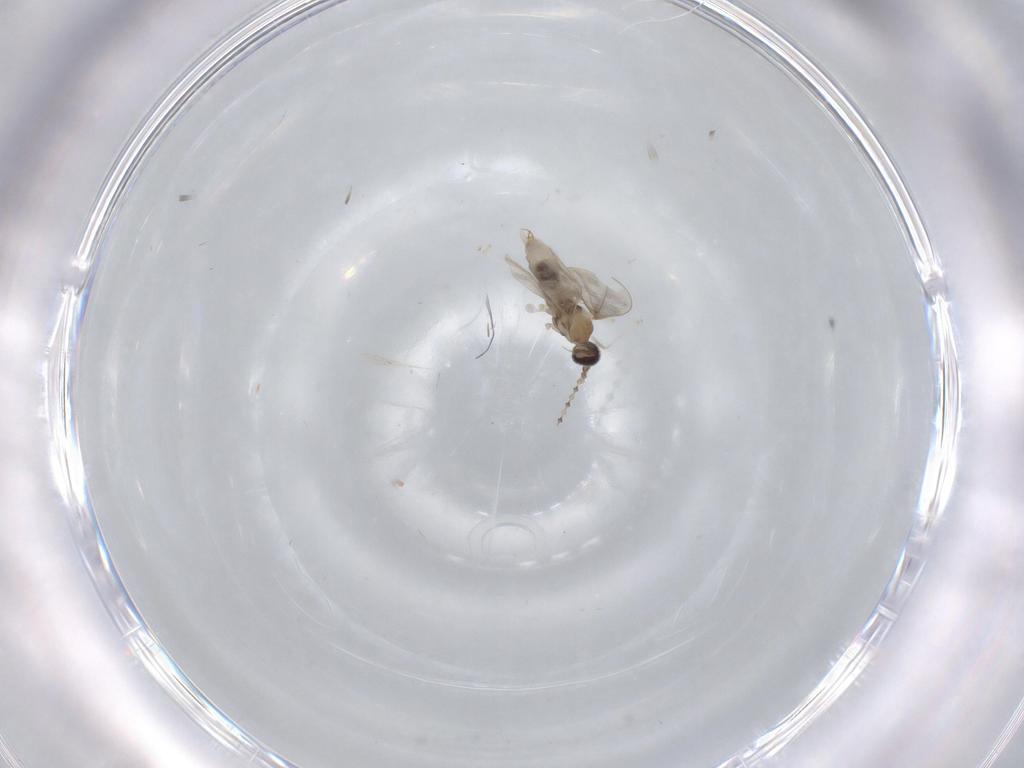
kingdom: Animalia
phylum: Arthropoda
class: Insecta
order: Diptera
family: Cecidomyiidae
